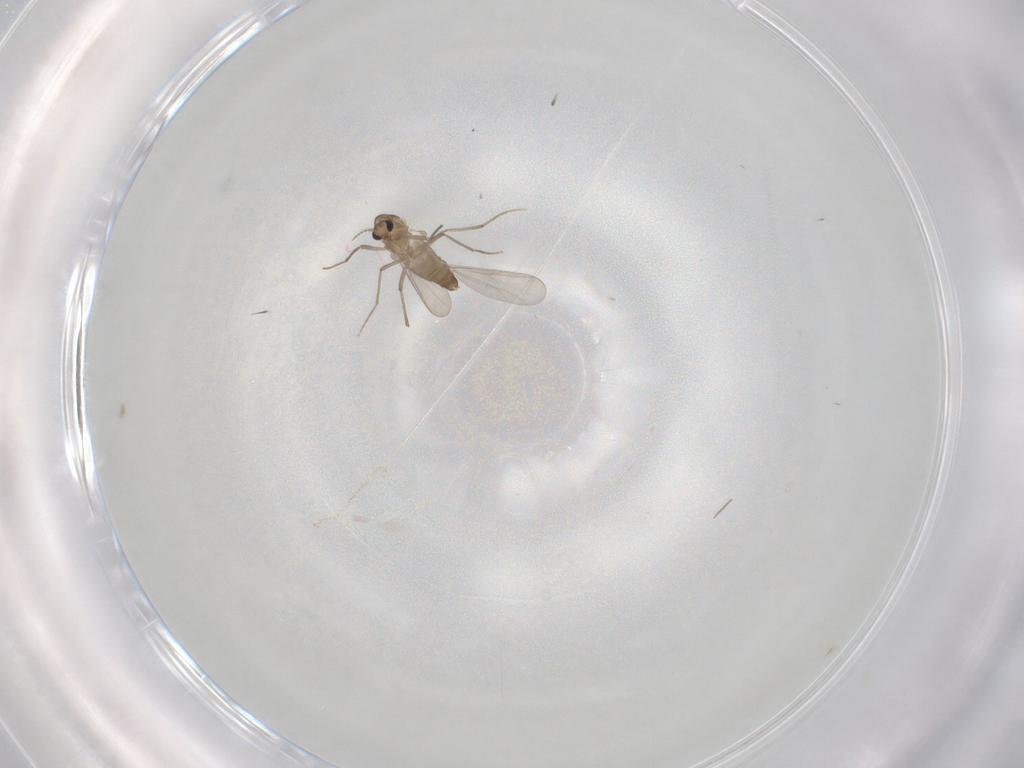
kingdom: Animalia
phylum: Arthropoda
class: Insecta
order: Diptera
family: Chironomidae
